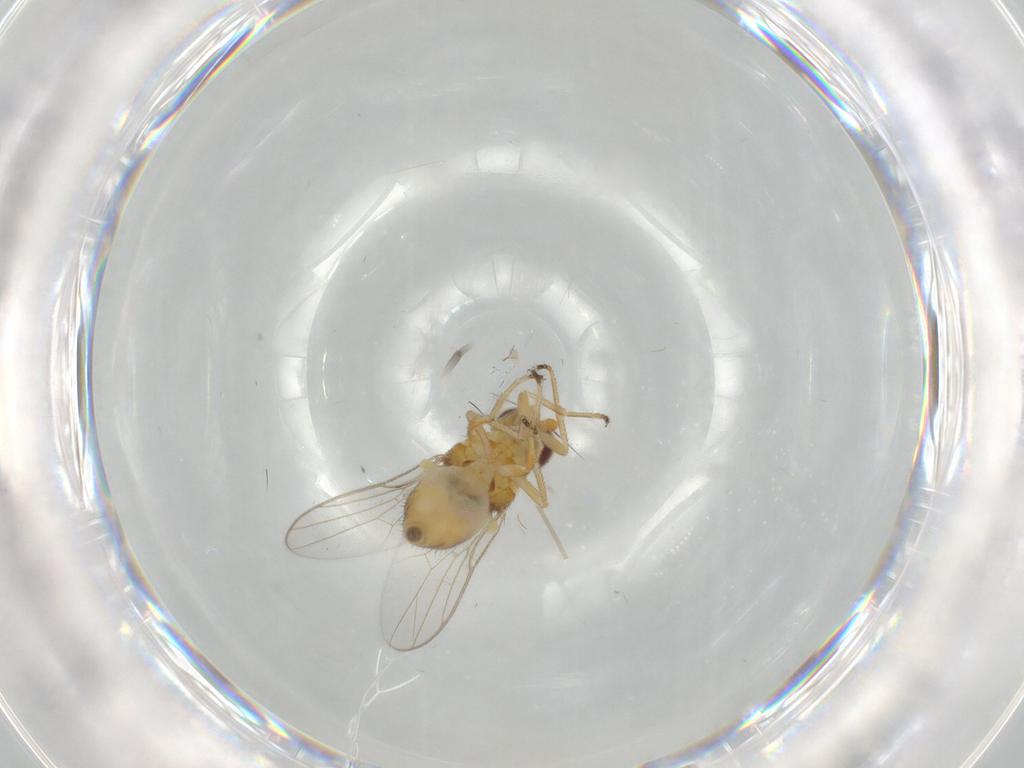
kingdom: Animalia
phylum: Arthropoda
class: Insecta
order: Diptera
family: Chloropidae
